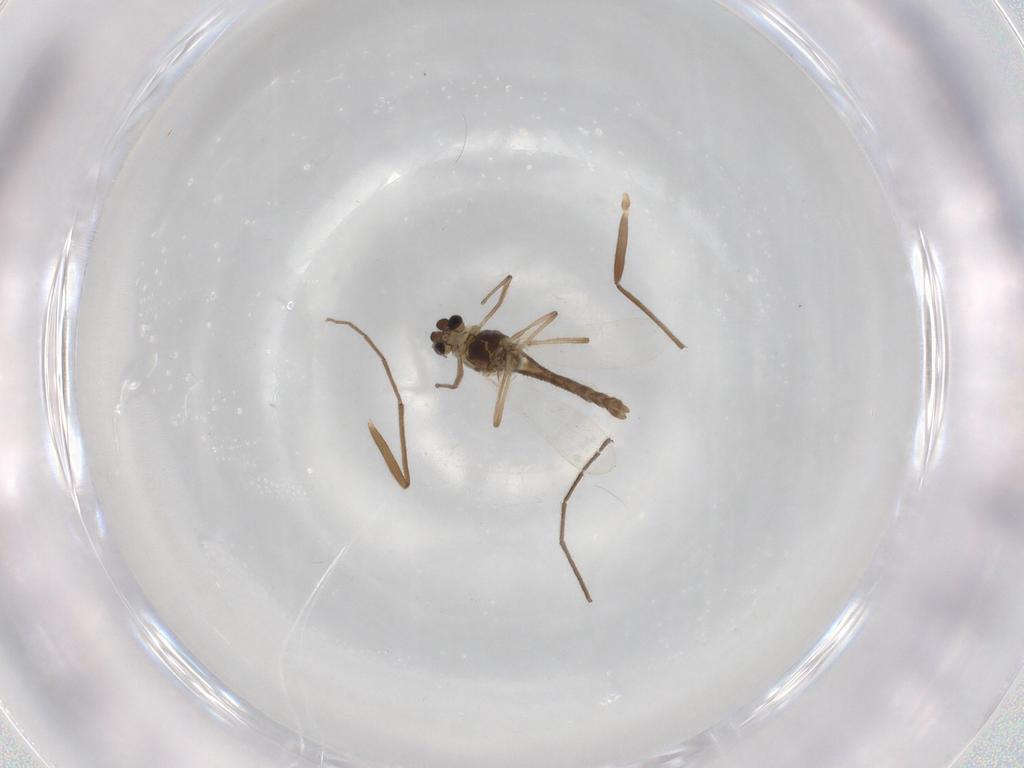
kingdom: Animalia
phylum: Arthropoda
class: Insecta
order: Diptera
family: Chironomidae
